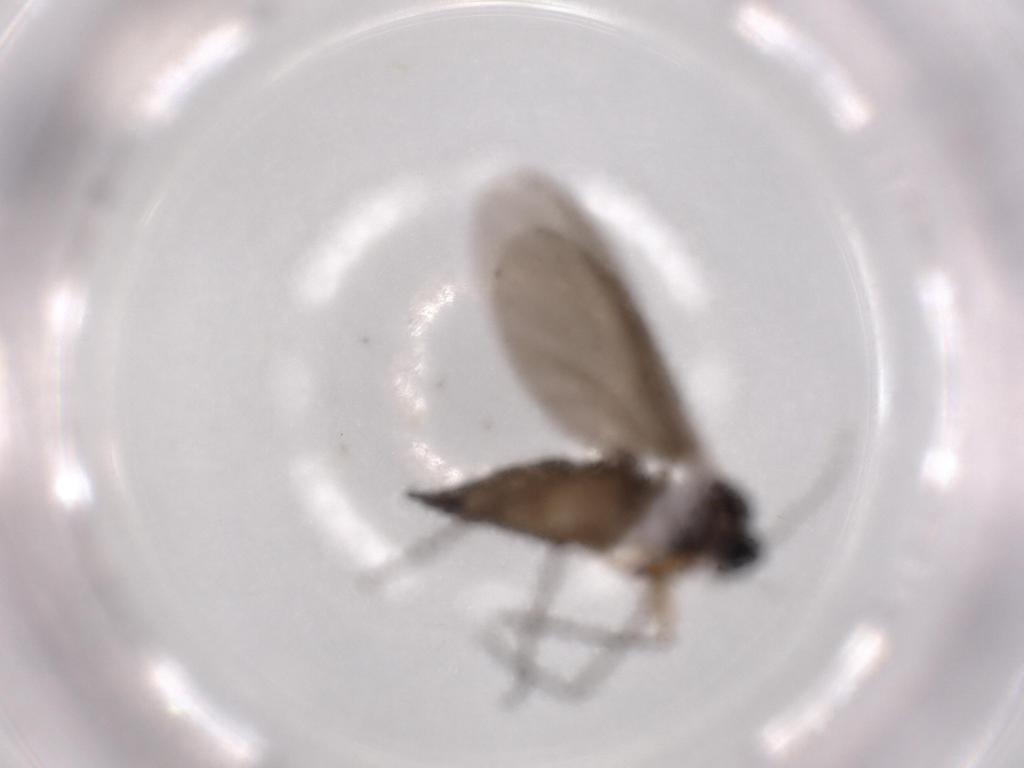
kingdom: Animalia
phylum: Arthropoda
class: Insecta
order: Diptera
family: Sciaridae
